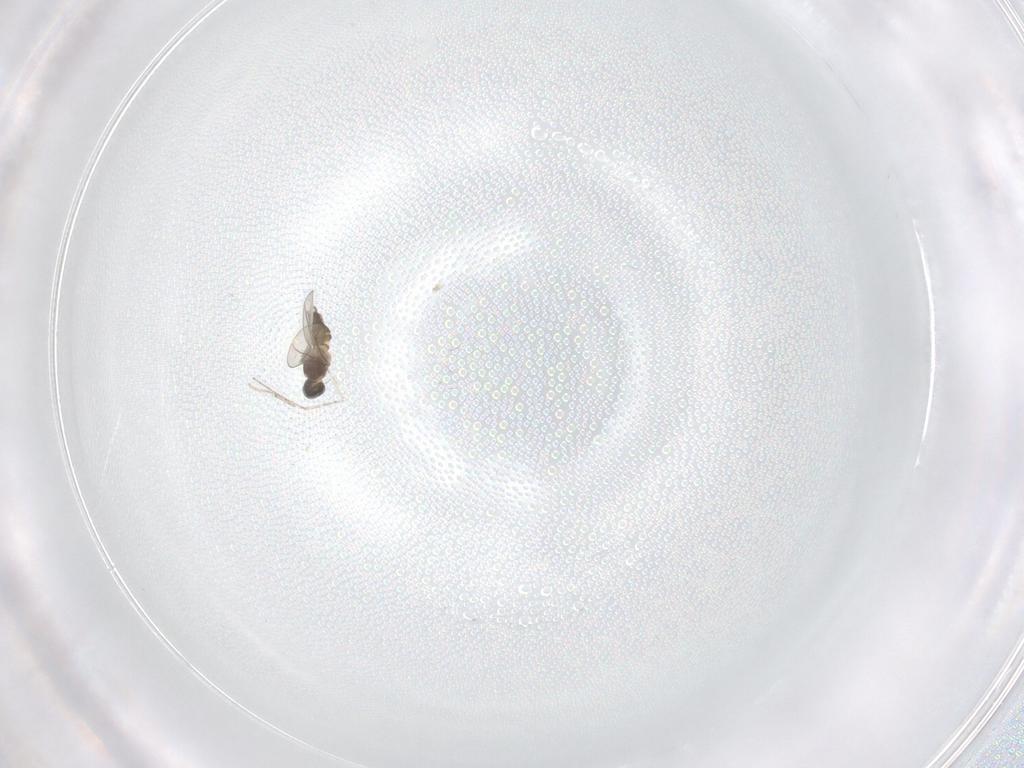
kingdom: Animalia
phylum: Arthropoda
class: Insecta
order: Diptera
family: Cecidomyiidae
